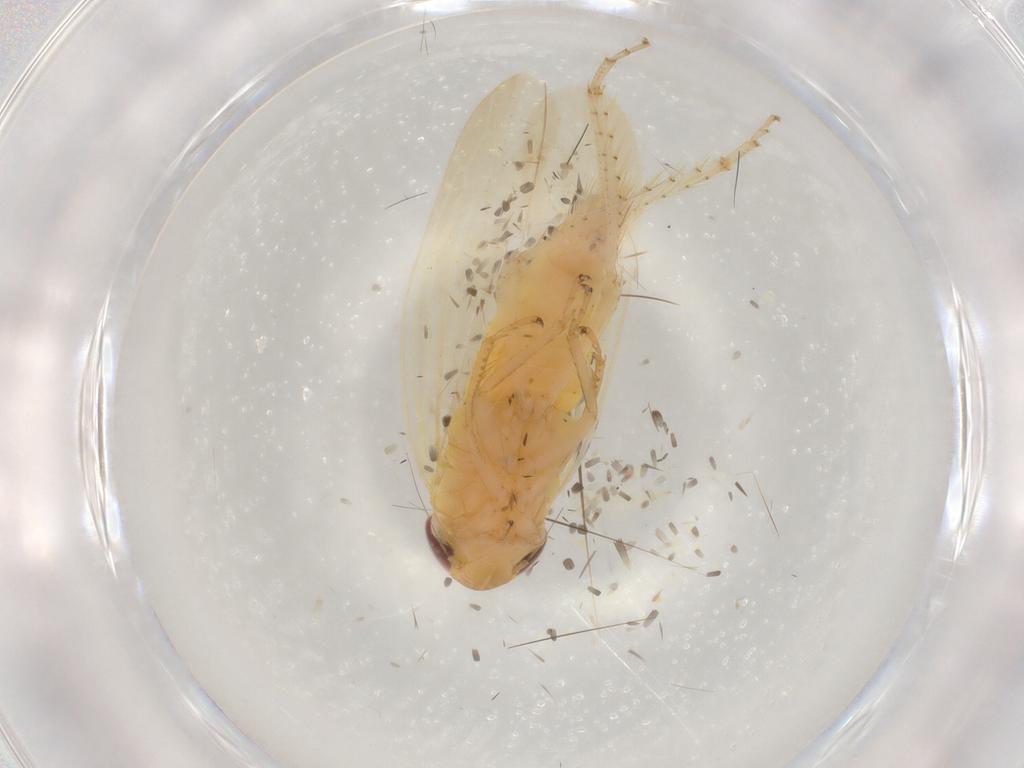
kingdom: Animalia
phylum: Arthropoda
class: Insecta
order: Hemiptera
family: Cicadellidae
